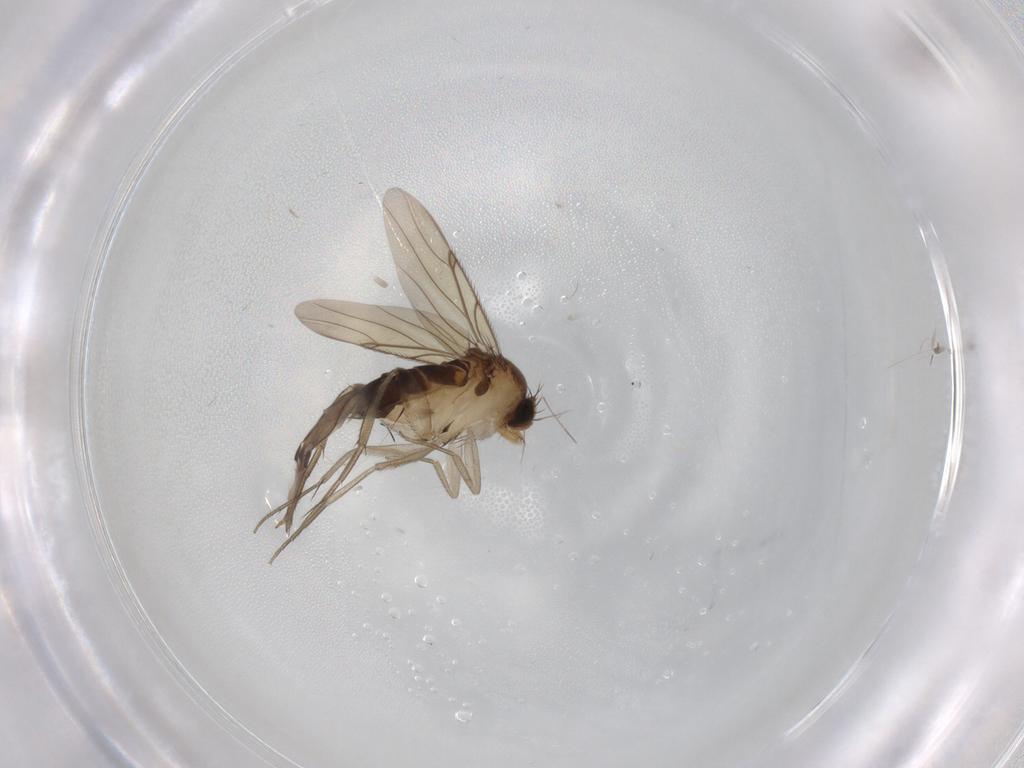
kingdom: Animalia
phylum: Arthropoda
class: Insecta
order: Diptera
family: Phoridae
